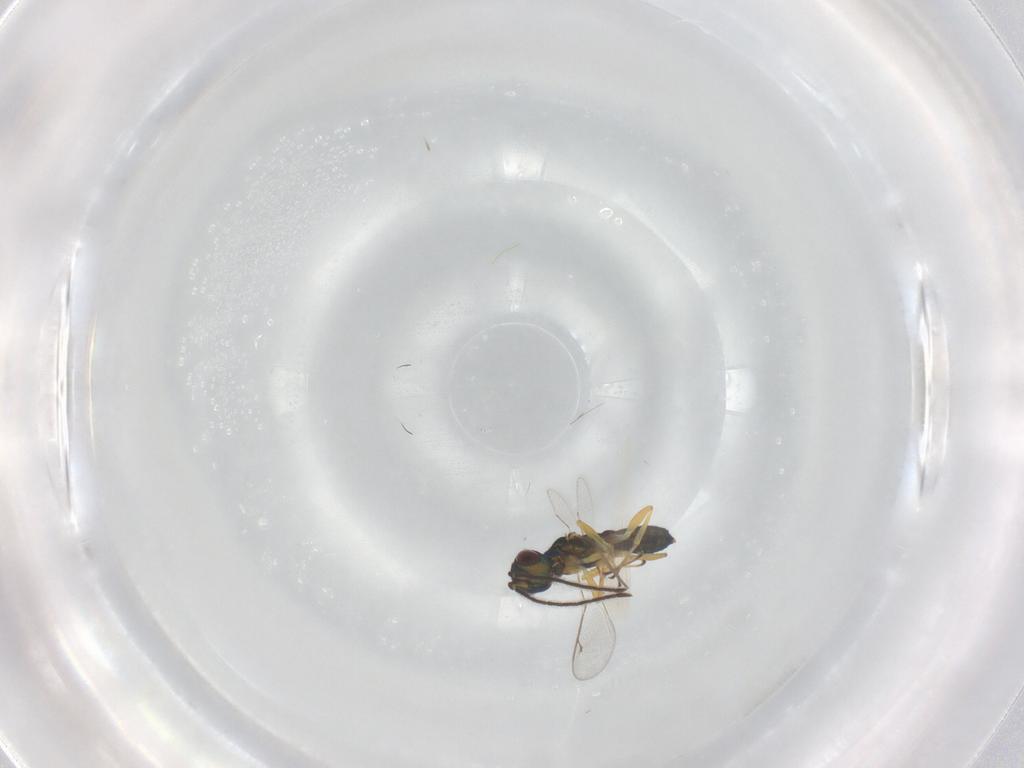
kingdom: Animalia
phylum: Arthropoda
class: Insecta
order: Hymenoptera
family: Eupelmidae
